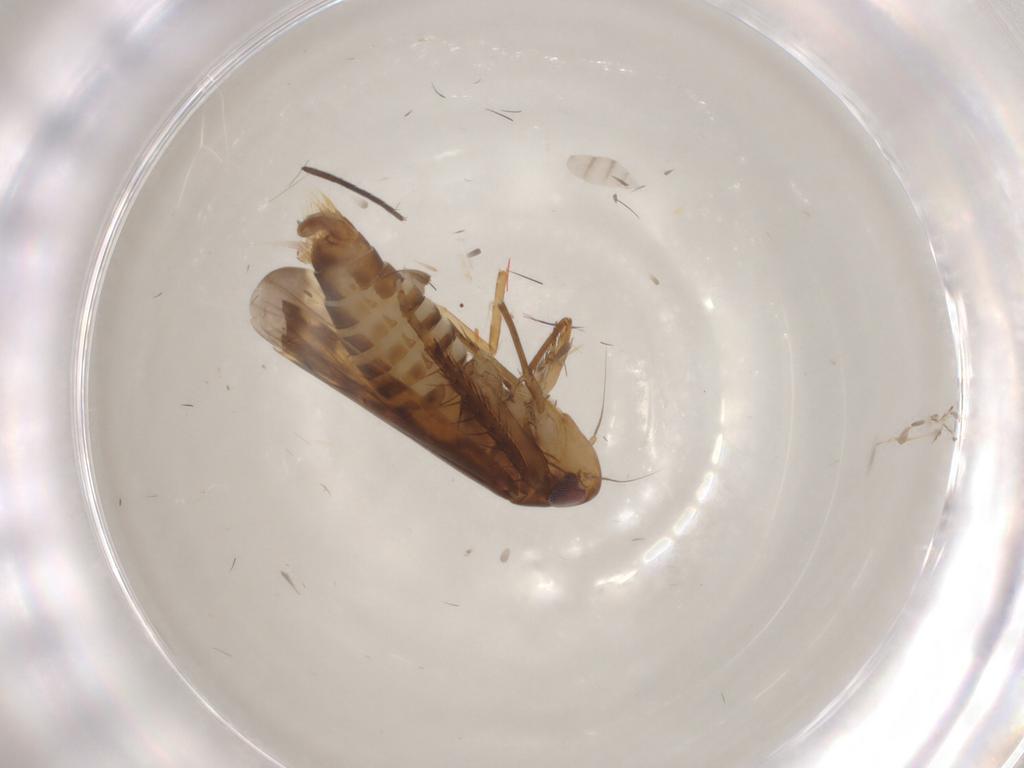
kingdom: Animalia
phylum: Arthropoda
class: Insecta
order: Hemiptera
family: Cicadellidae
